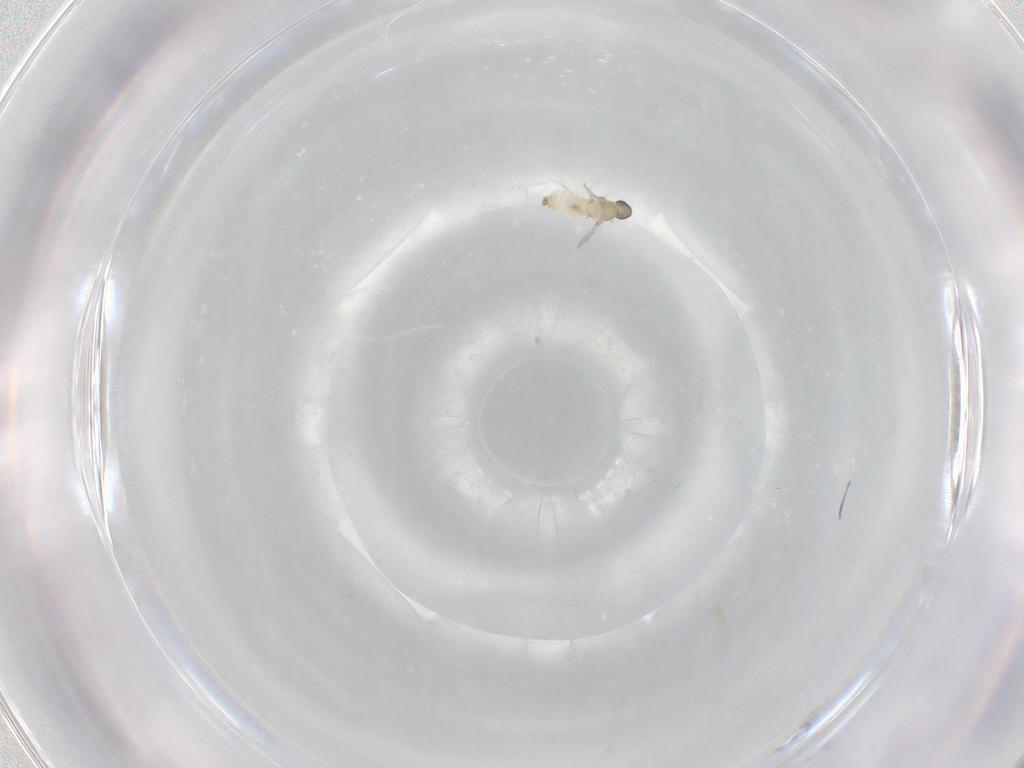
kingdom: Animalia
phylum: Arthropoda
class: Insecta
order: Diptera
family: Cecidomyiidae
